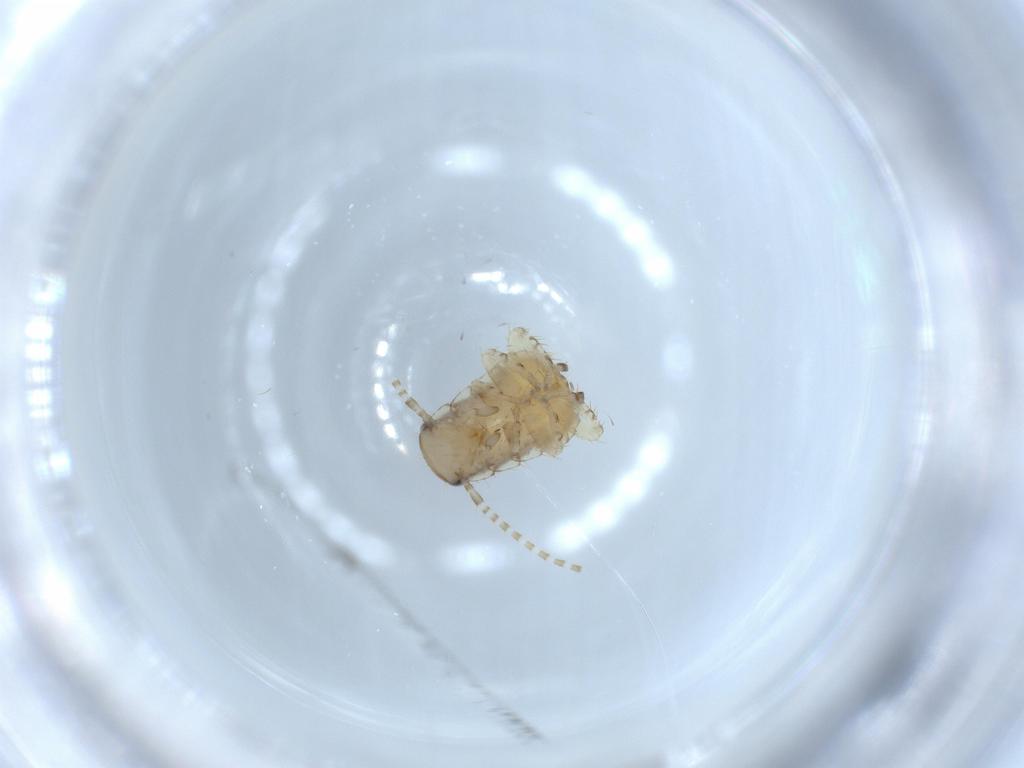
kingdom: Animalia
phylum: Arthropoda
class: Insecta
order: Blattodea
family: Ectobiidae
